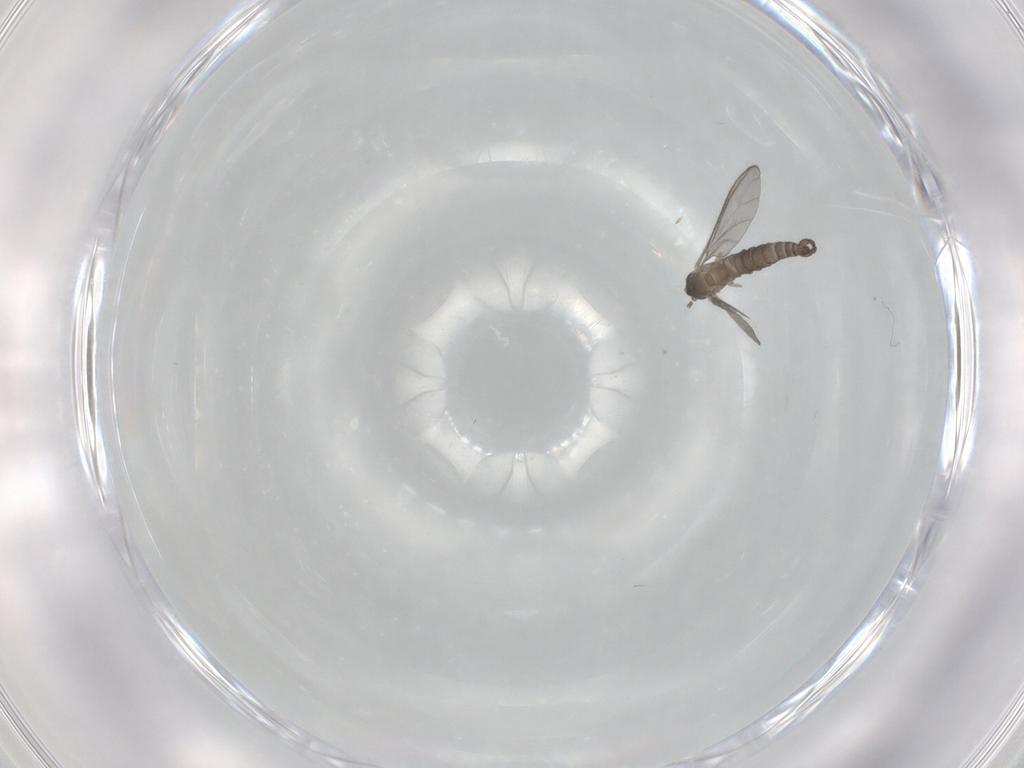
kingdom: Animalia
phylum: Arthropoda
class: Insecta
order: Diptera
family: Sciaridae
